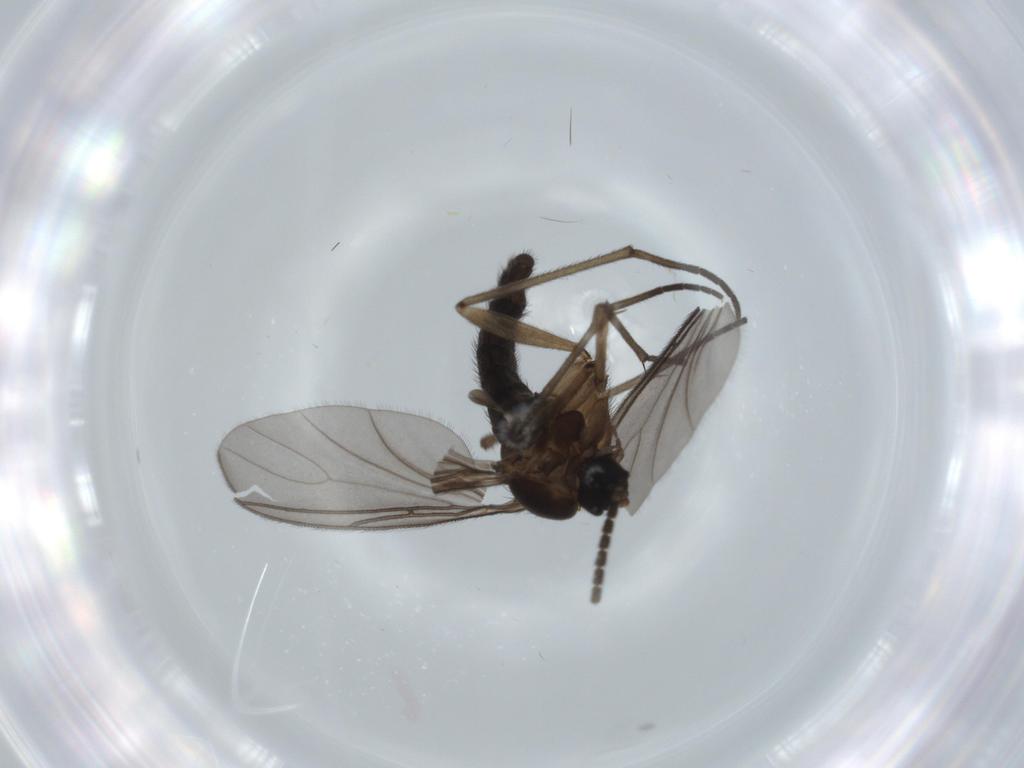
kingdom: Animalia
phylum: Arthropoda
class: Insecta
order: Diptera
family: Sciaridae
